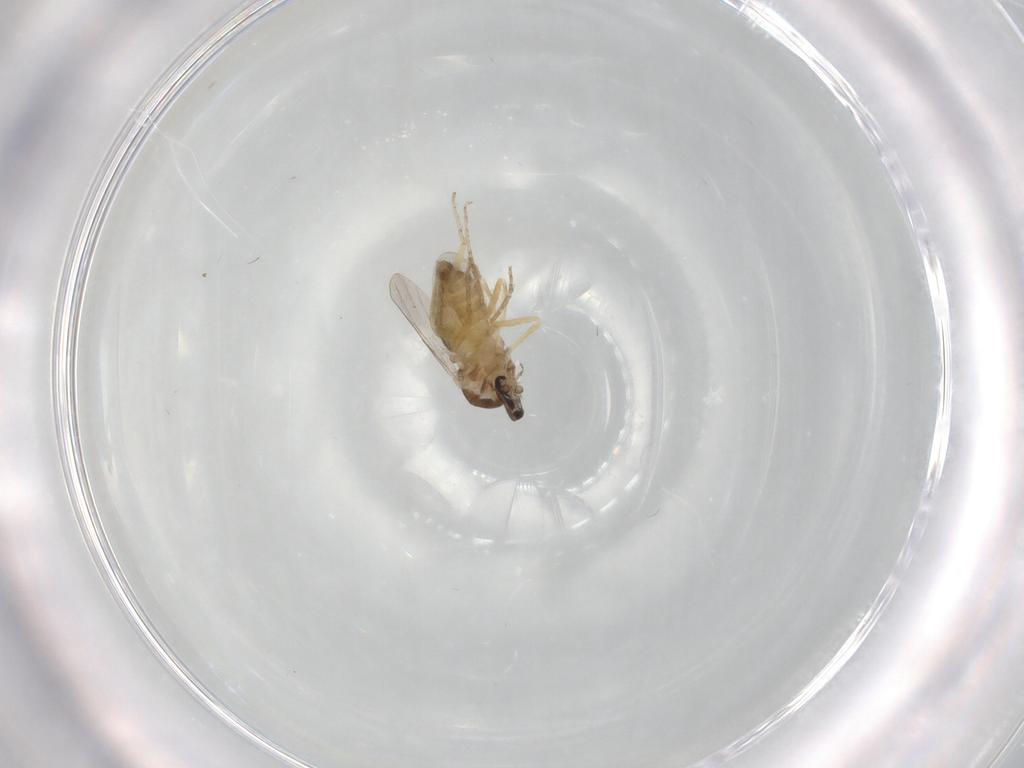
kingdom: Animalia
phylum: Arthropoda
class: Insecta
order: Diptera
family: Ceratopogonidae
